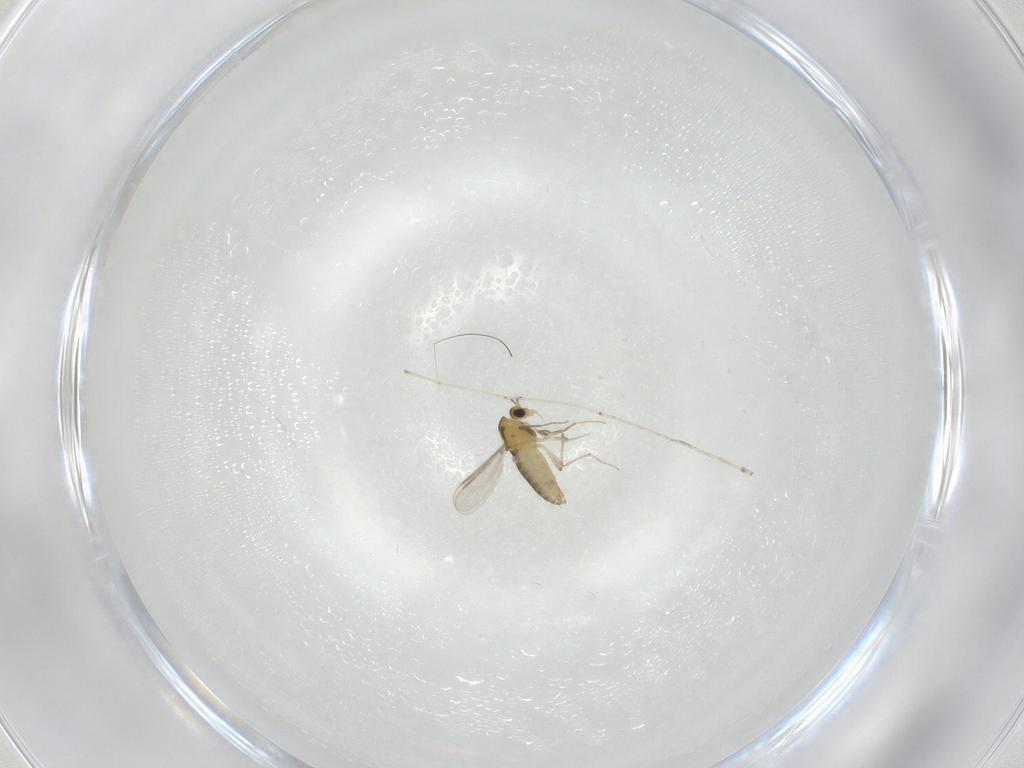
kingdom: Animalia
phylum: Arthropoda
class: Insecta
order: Diptera
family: Chironomidae
